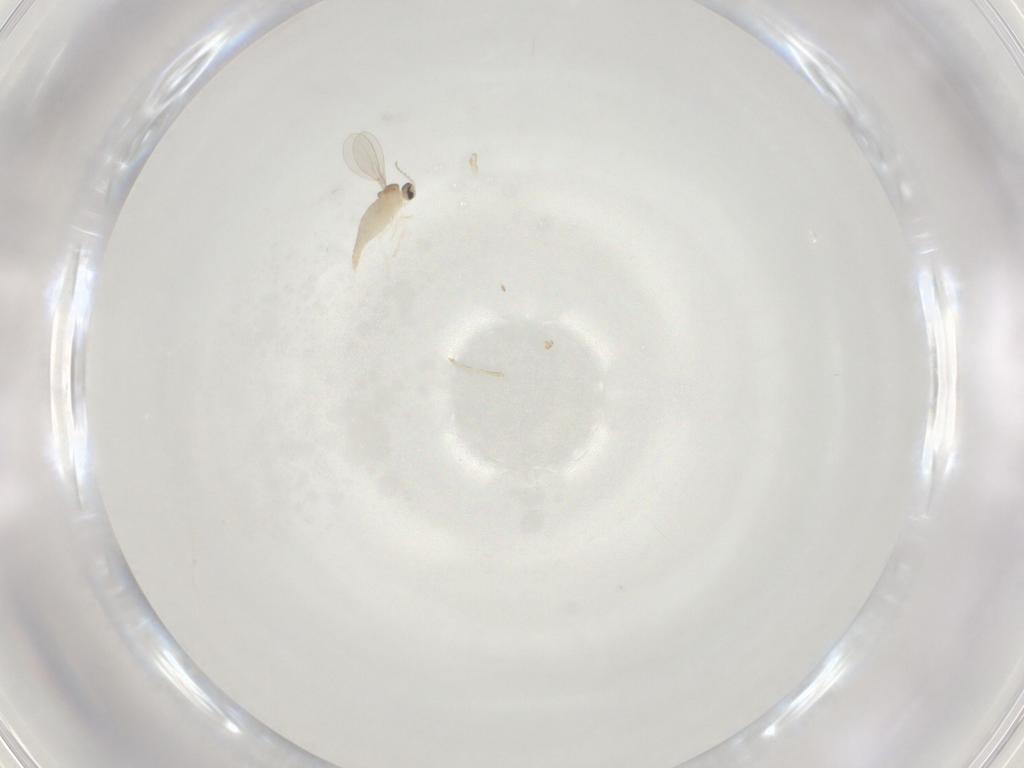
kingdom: Animalia
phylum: Arthropoda
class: Insecta
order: Diptera
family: Cecidomyiidae
